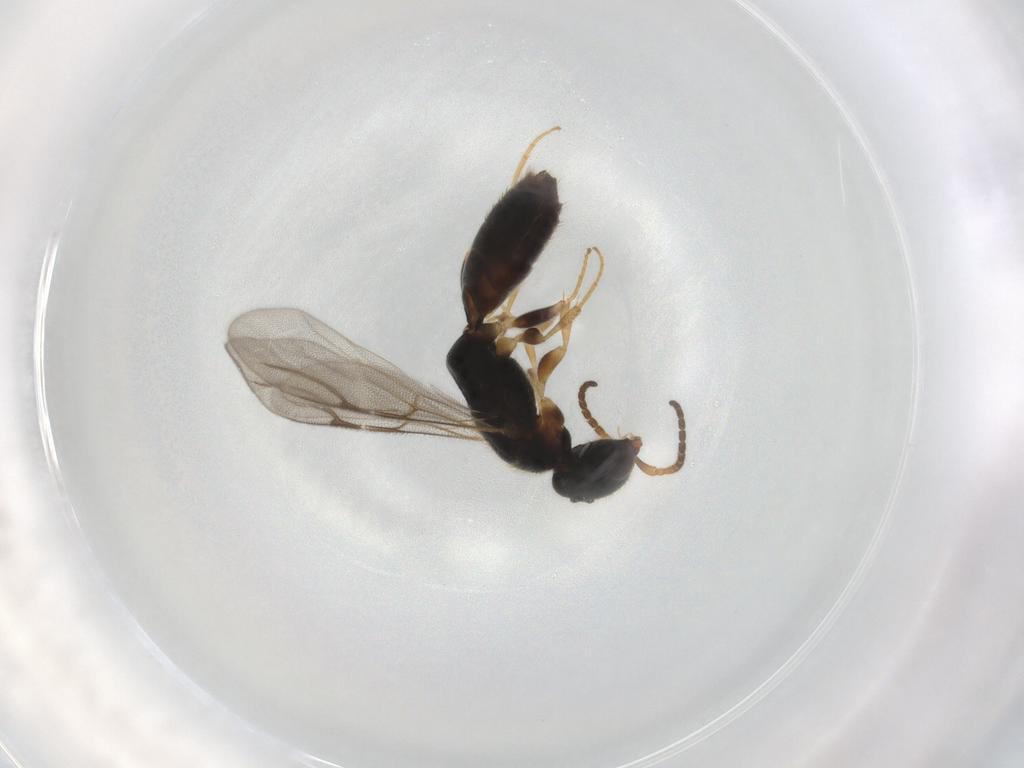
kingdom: Animalia
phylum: Arthropoda
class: Insecta
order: Hymenoptera
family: Bethylidae
